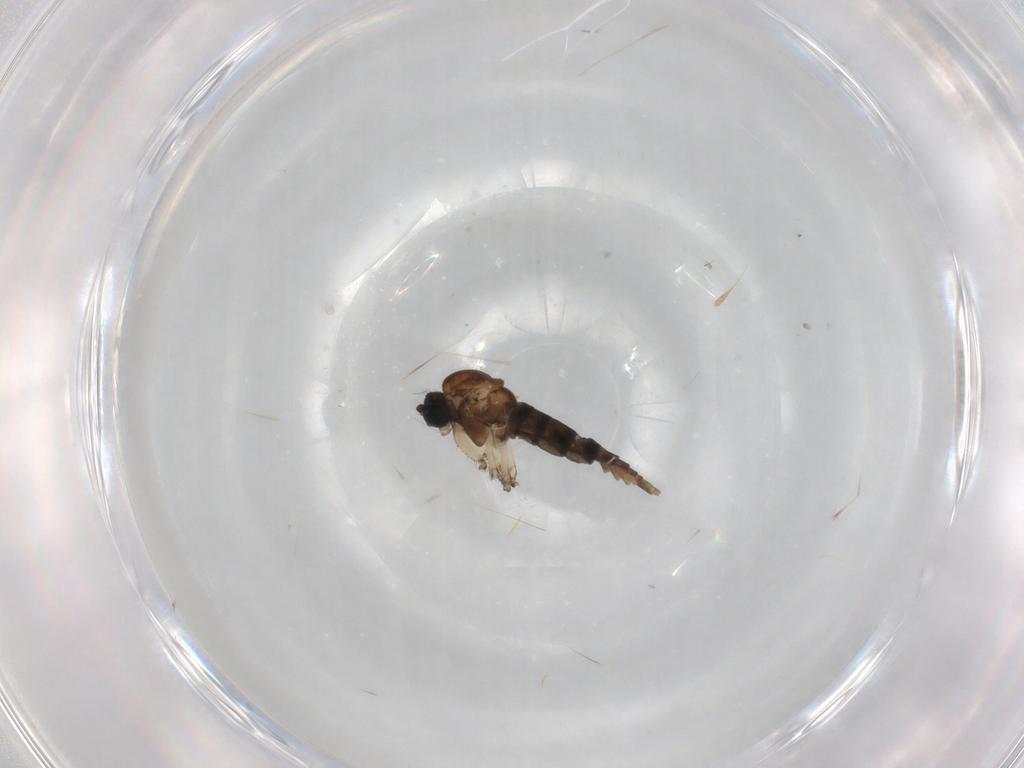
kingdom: Animalia
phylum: Arthropoda
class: Insecta
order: Diptera
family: Sciaridae
